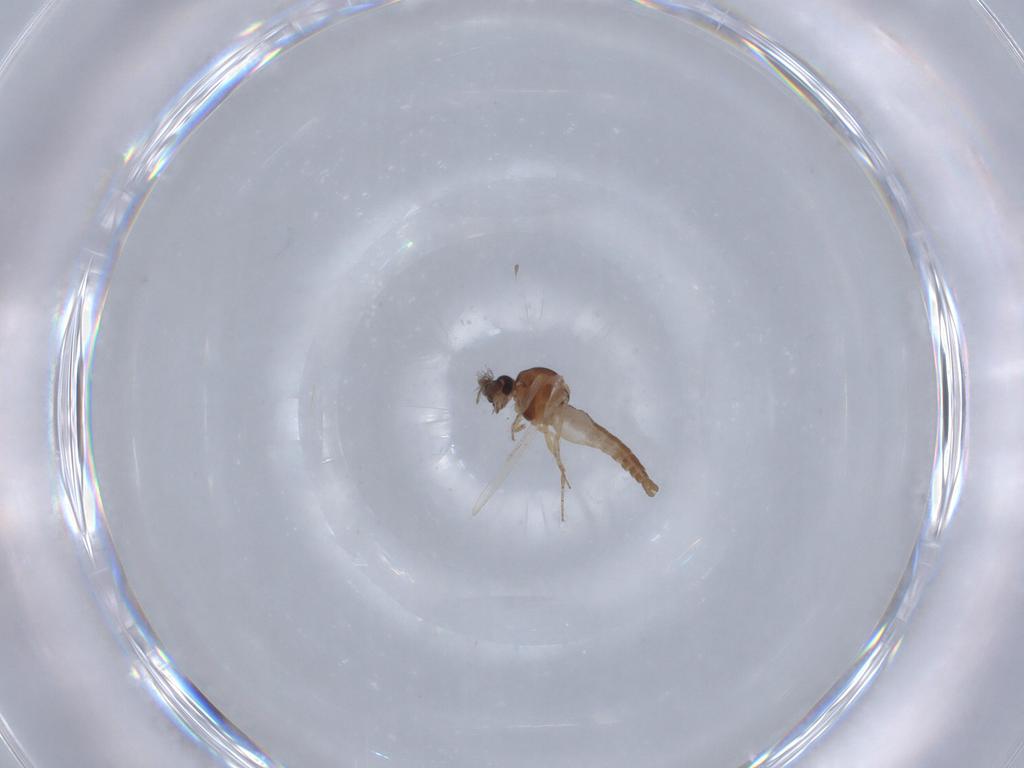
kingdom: Animalia
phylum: Arthropoda
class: Insecta
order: Diptera
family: Ceratopogonidae
